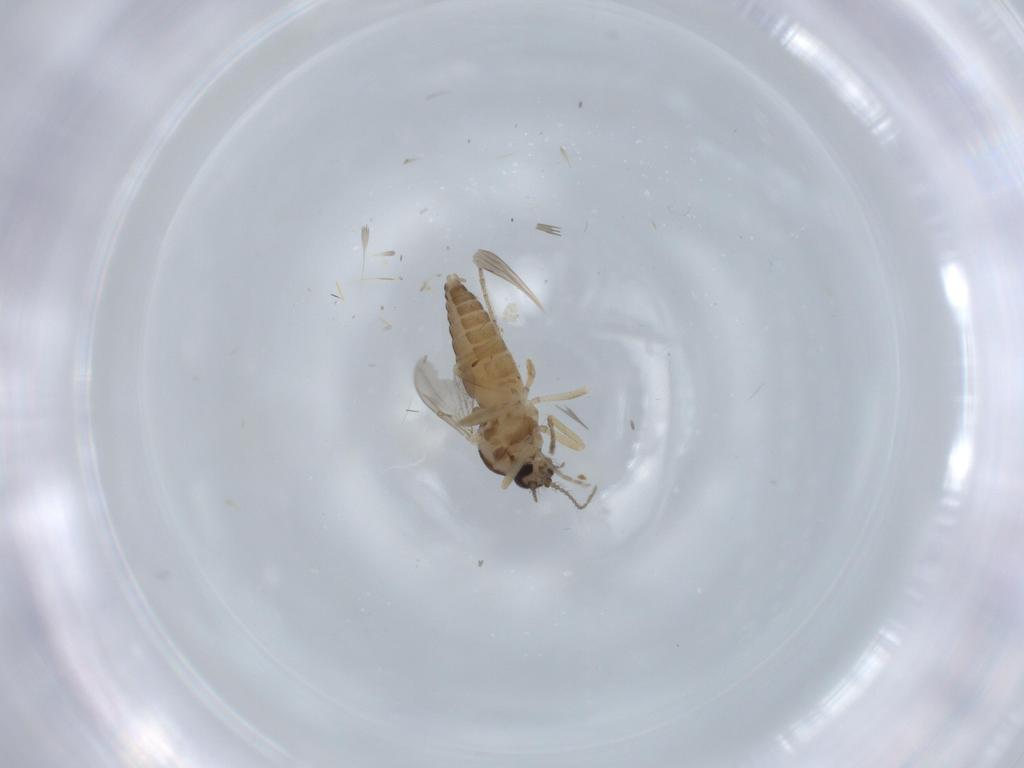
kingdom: Animalia
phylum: Arthropoda
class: Insecta
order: Diptera
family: Ceratopogonidae
